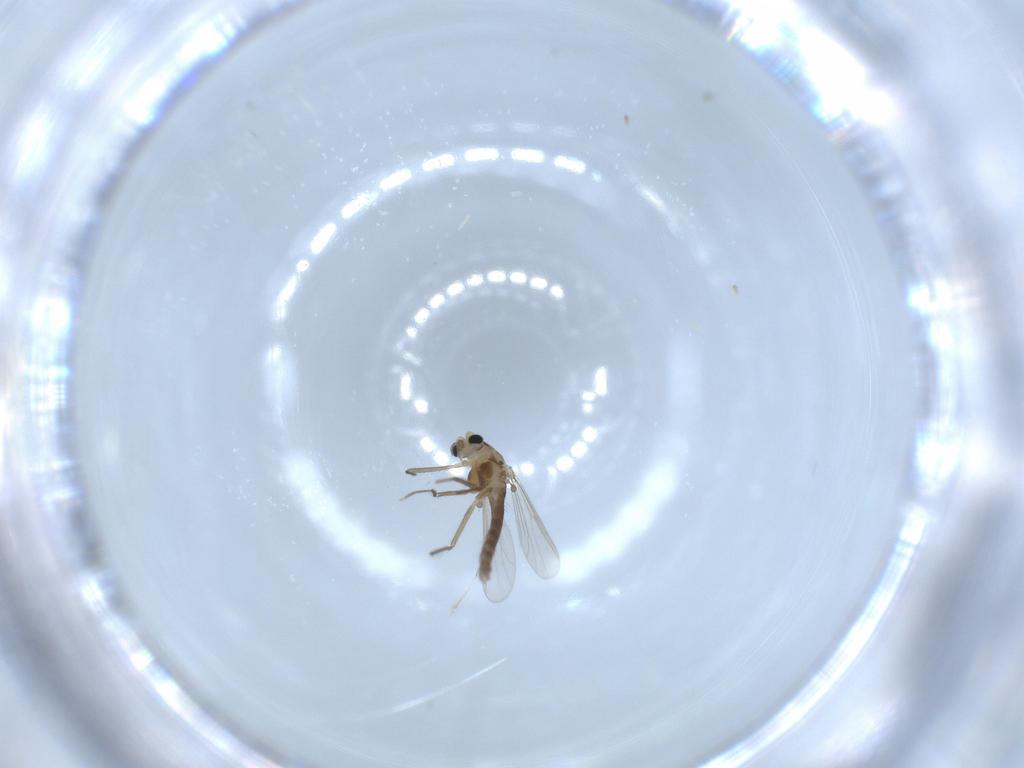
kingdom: Animalia
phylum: Arthropoda
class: Insecta
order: Diptera
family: Chironomidae
